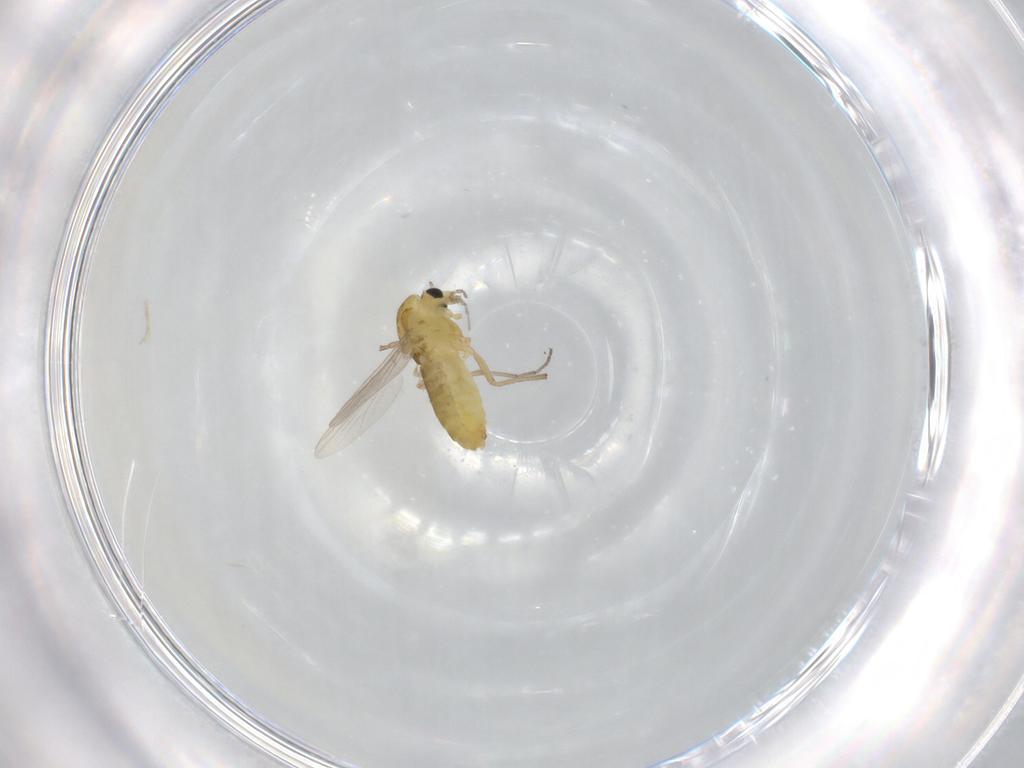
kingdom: Animalia
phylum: Arthropoda
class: Insecta
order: Diptera
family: Chironomidae
